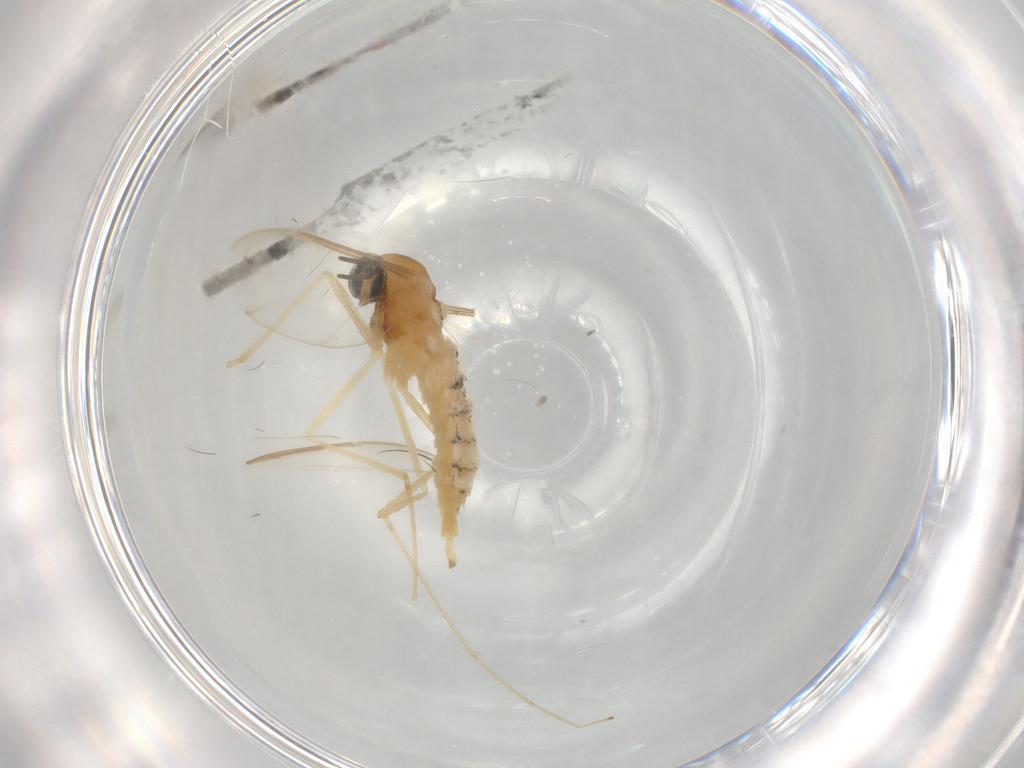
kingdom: Animalia
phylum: Arthropoda
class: Insecta
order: Diptera
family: Cecidomyiidae
